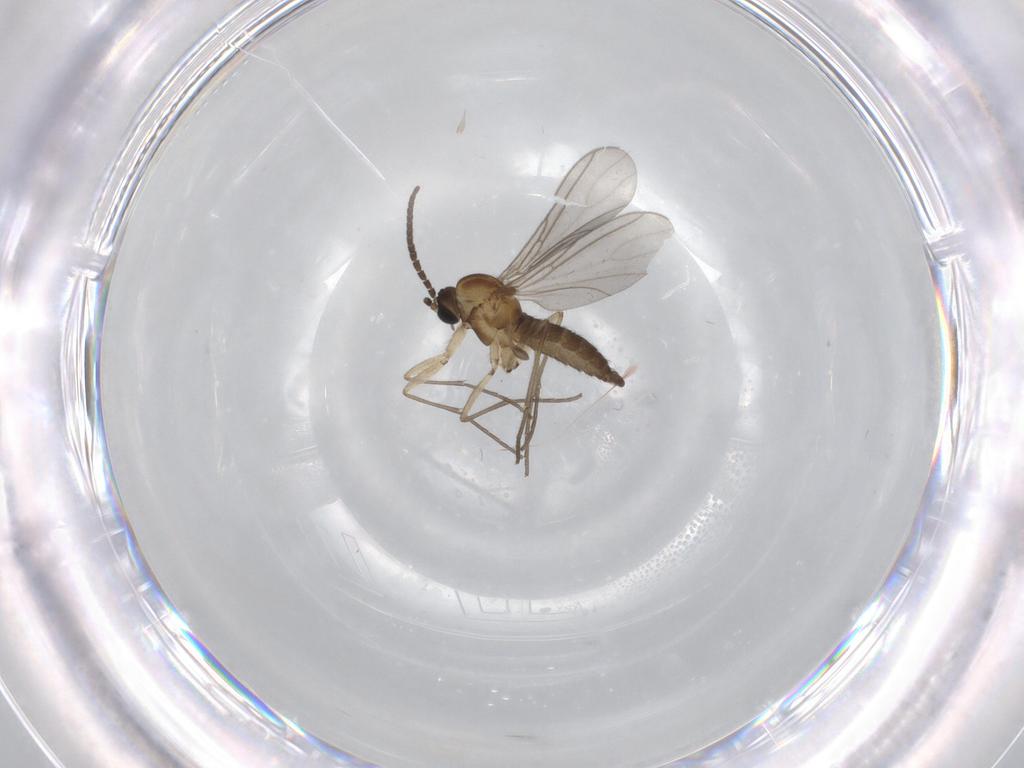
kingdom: Animalia
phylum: Arthropoda
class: Insecta
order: Diptera
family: Sciaridae
